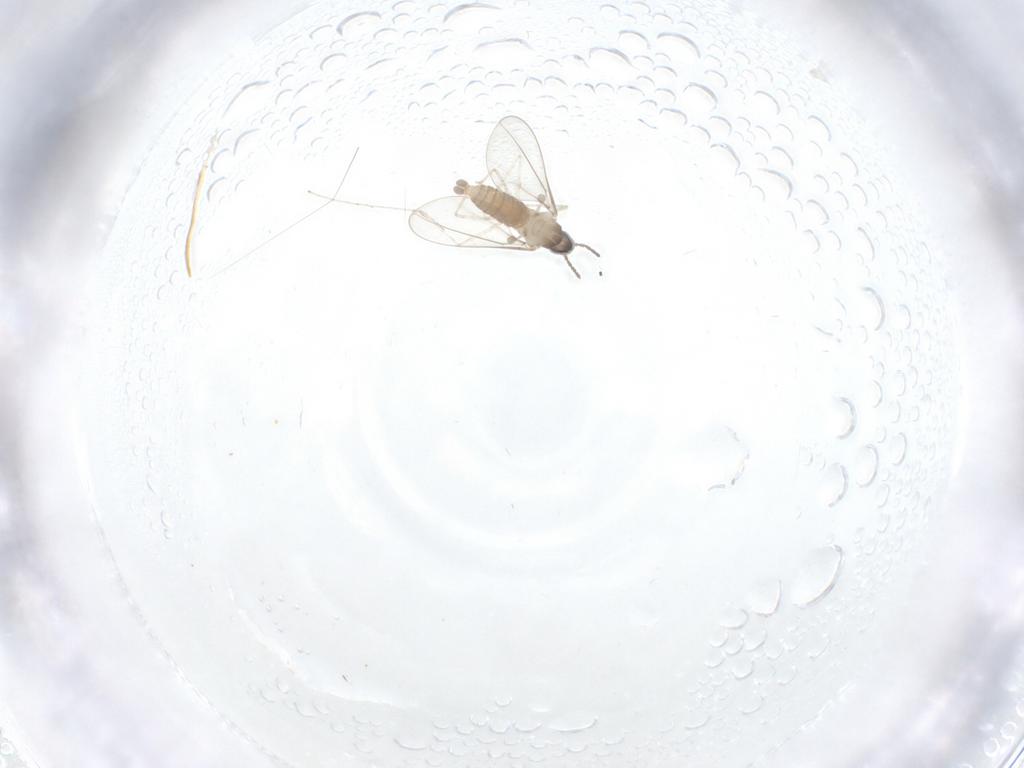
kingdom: Animalia
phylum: Arthropoda
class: Insecta
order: Diptera
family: Cecidomyiidae
